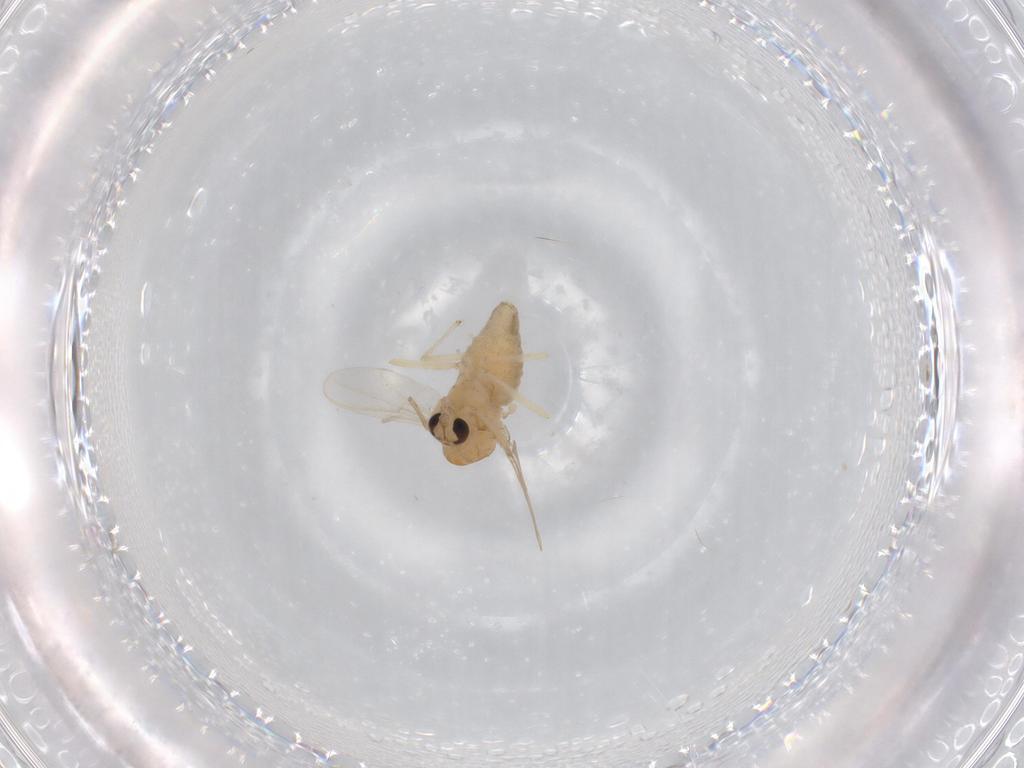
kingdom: Animalia
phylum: Arthropoda
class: Insecta
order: Diptera
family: Chironomidae
